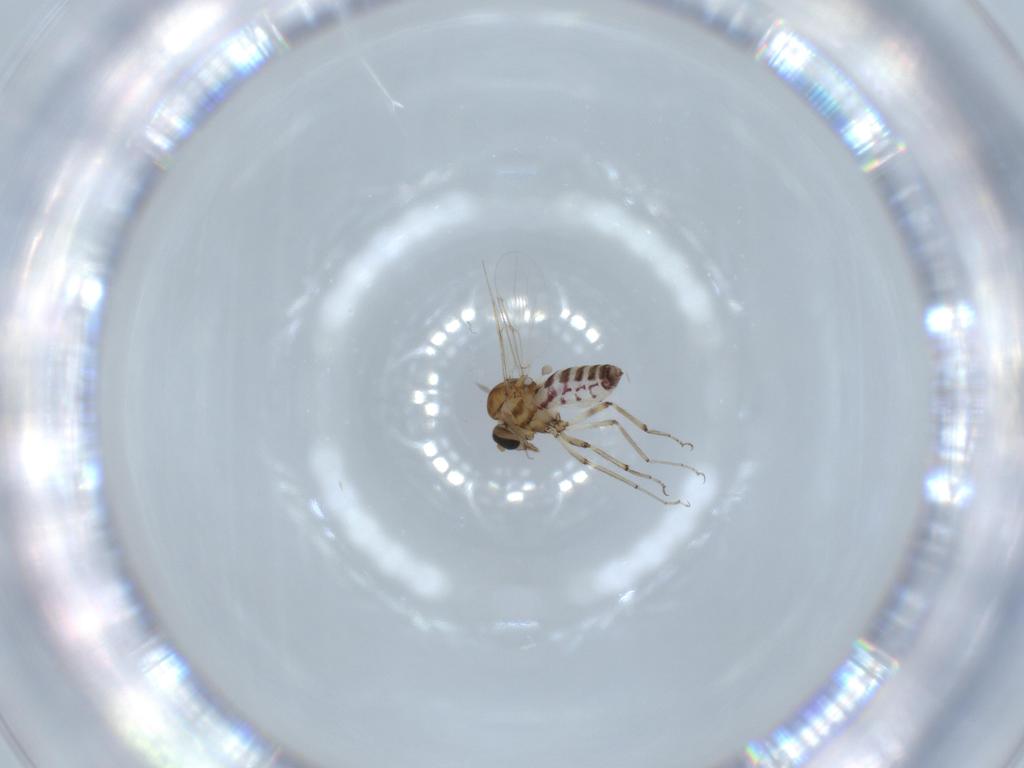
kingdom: Animalia
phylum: Arthropoda
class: Insecta
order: Diptera
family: Ceratopogonidae
